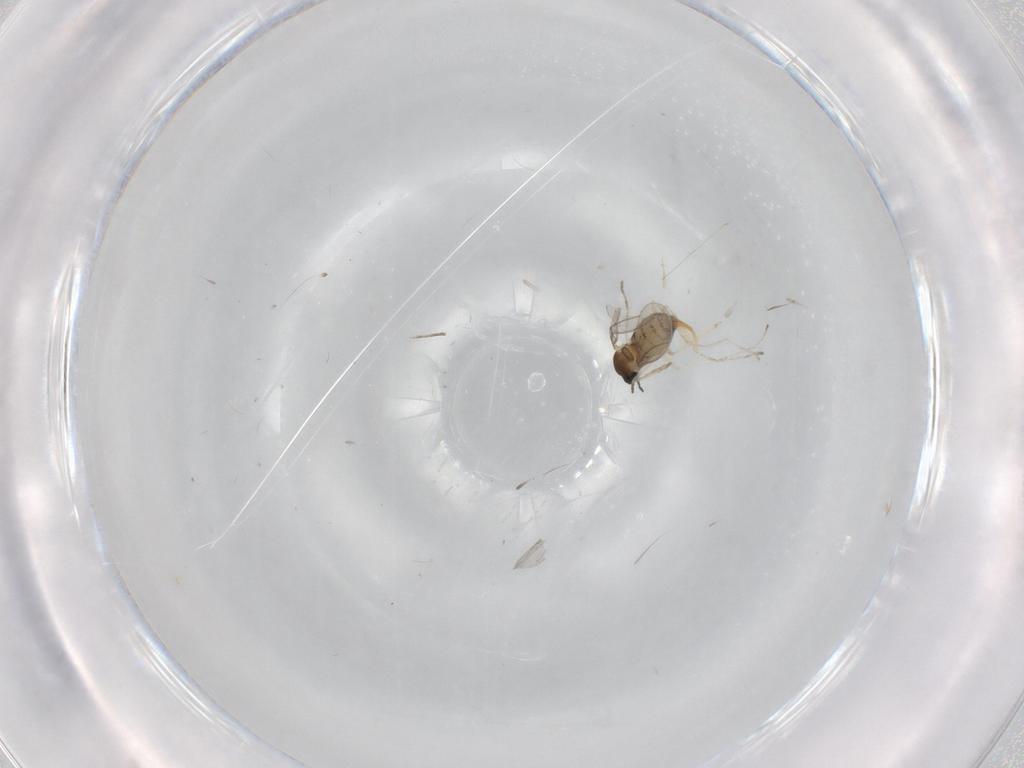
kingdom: Animalia
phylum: Arthropoda
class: Insecta
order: Diptera
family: Cecidomyiidae
